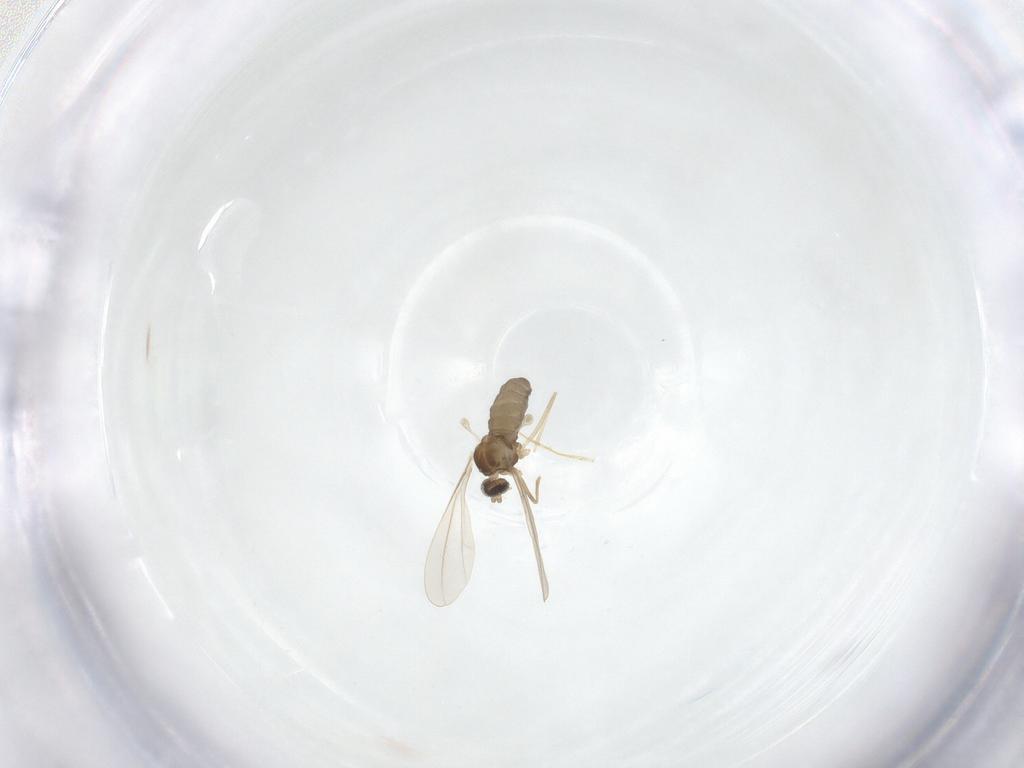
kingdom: Animalia
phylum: Arthropoda
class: Insecta
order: Diptera
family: Cecidomyiidae
